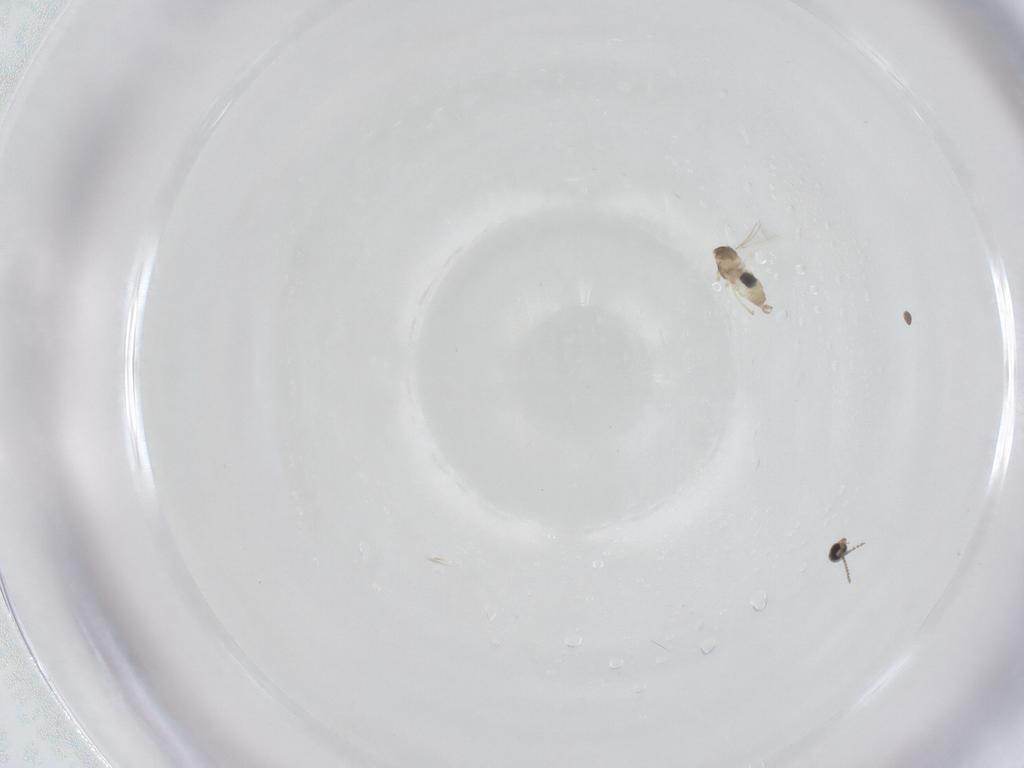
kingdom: Animalia
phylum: Arthropoda
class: Insecta
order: Diptera
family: Cecidomyiidae
